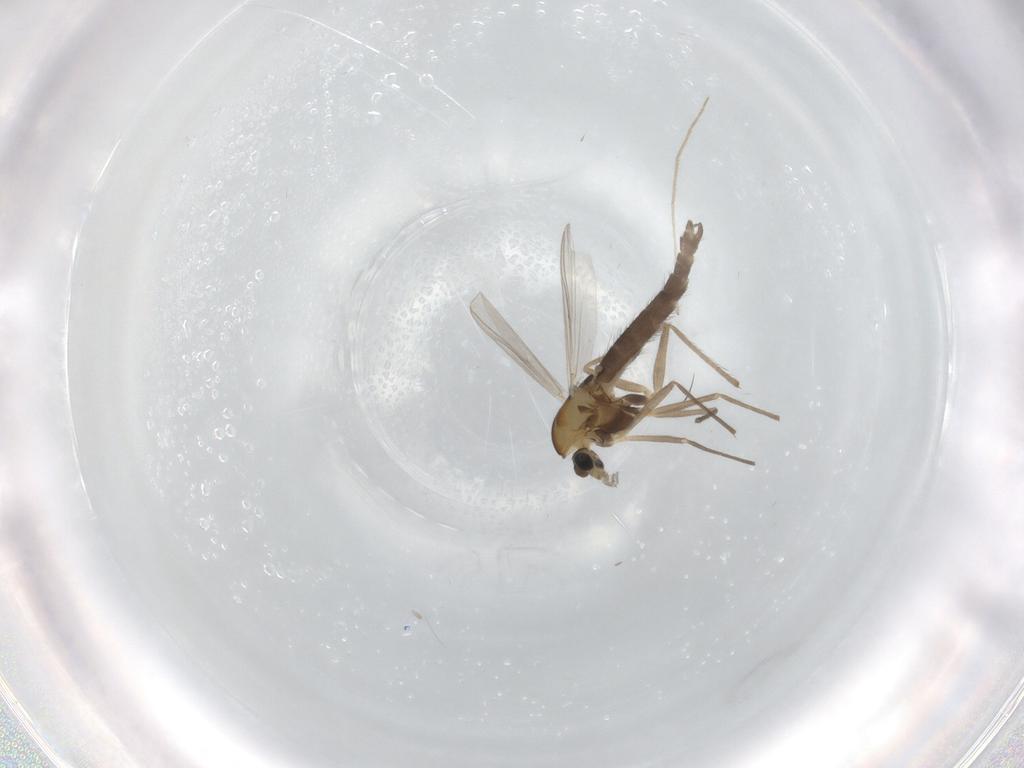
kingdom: Animalia
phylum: Arthropoda
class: Insecta
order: Diptera
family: Chironomidae
